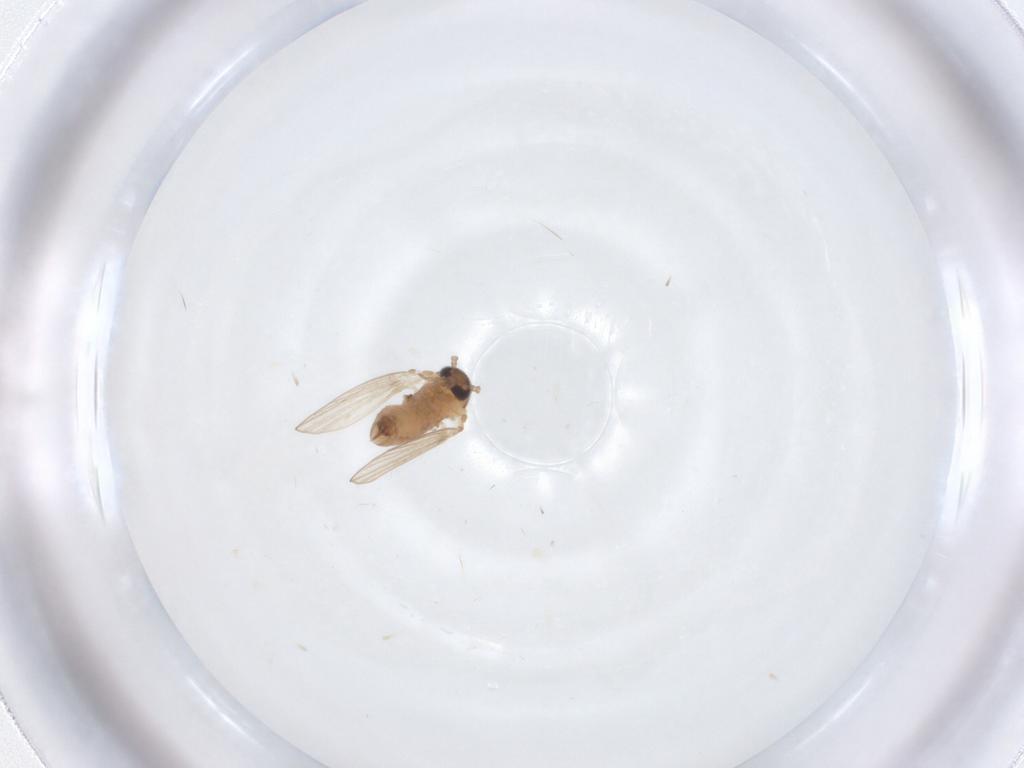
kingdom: Animalia
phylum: Arthropoda
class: Insecta
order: Diptera
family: Psychodidae
